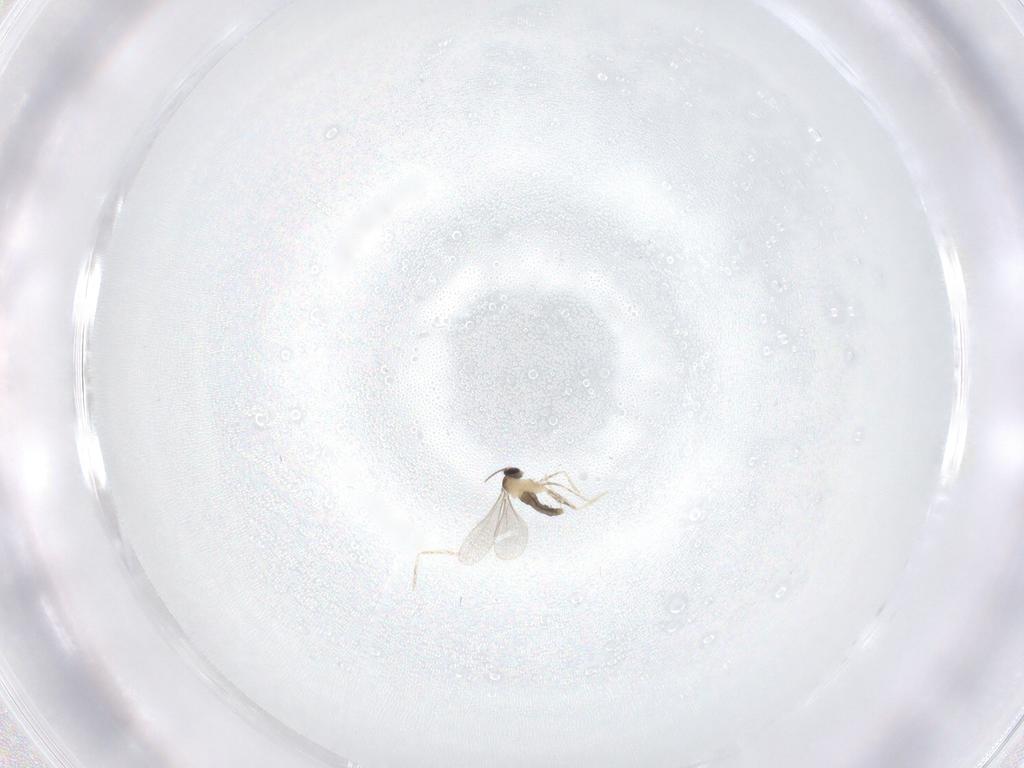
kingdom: Animalia
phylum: Arthropoda
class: Insecta
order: Diptera
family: Cecidomyiidae
